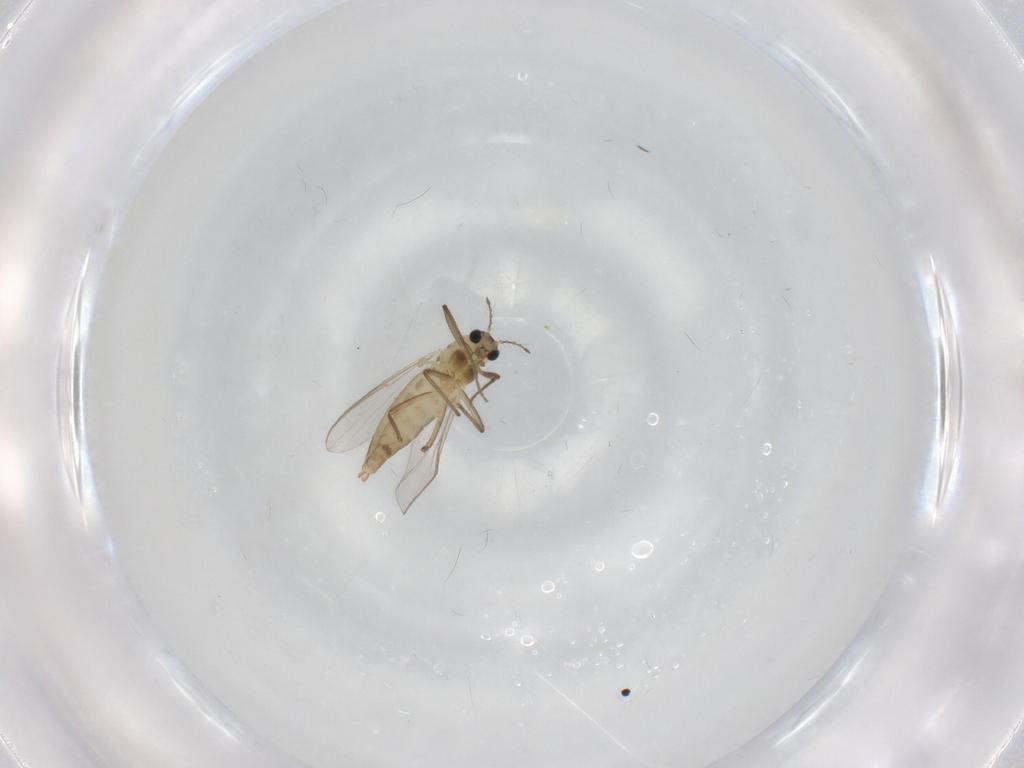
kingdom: Animalia
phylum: Arthropoda
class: Insecta
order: Diptera
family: Chironomidae
